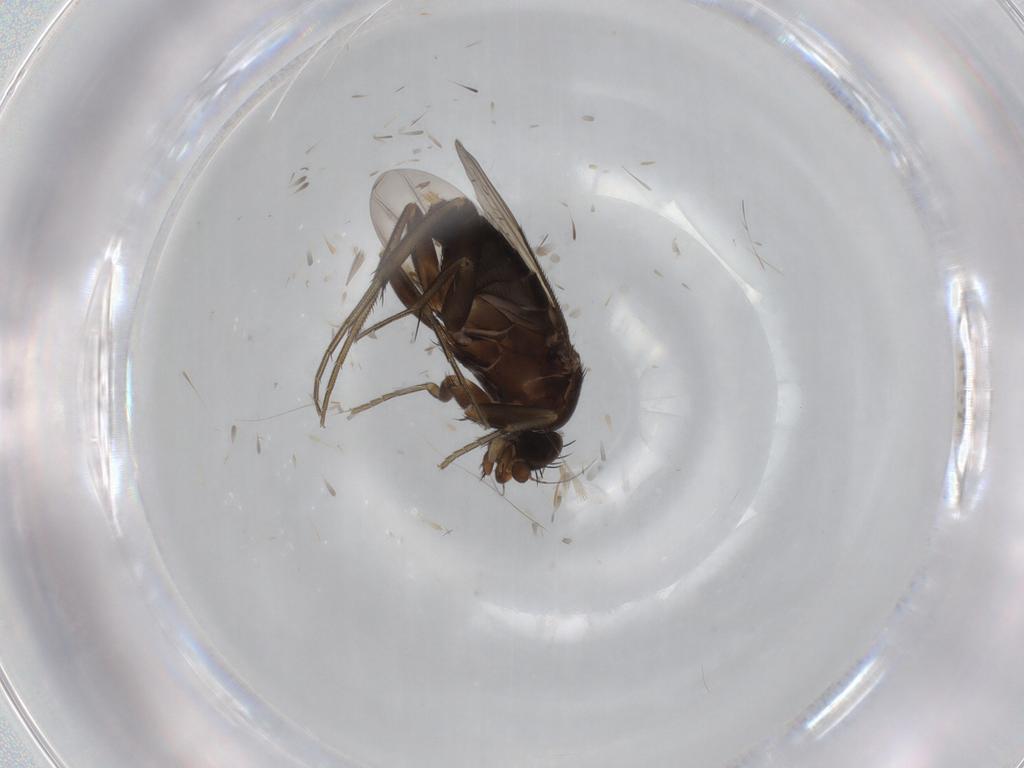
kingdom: Animalia
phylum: Arthropoda
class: Insecta
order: Diptera
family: Phoridae
